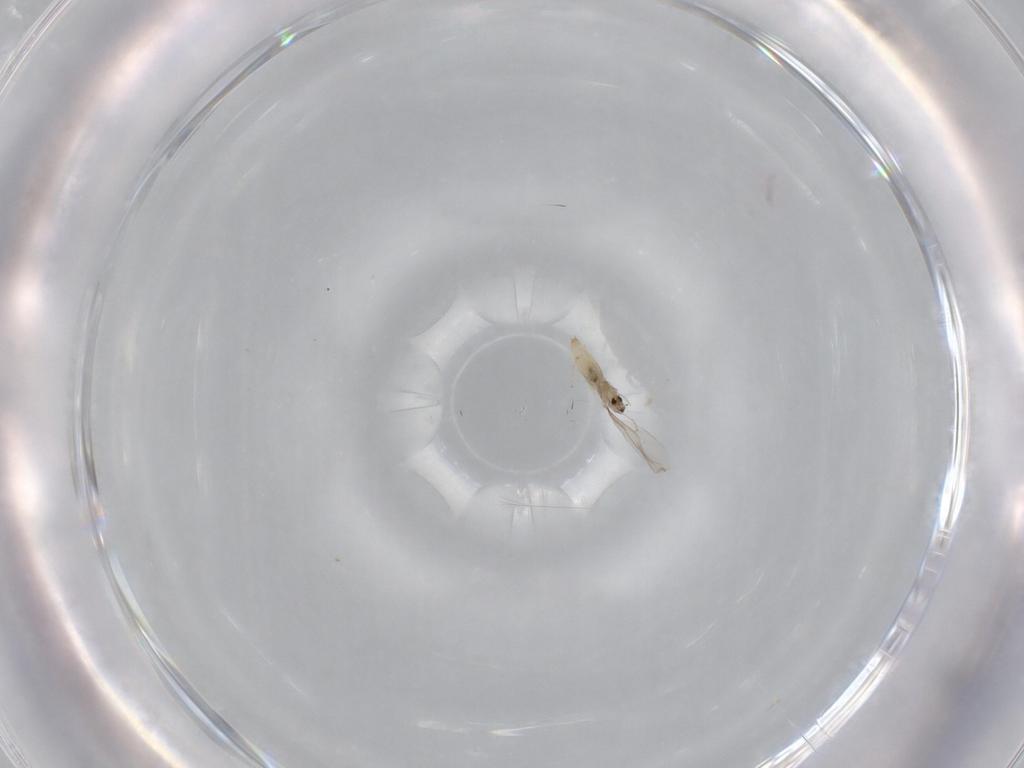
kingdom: Animalia
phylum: Arthropoda
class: Insecta
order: Diptera
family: Cecidomyiidae
